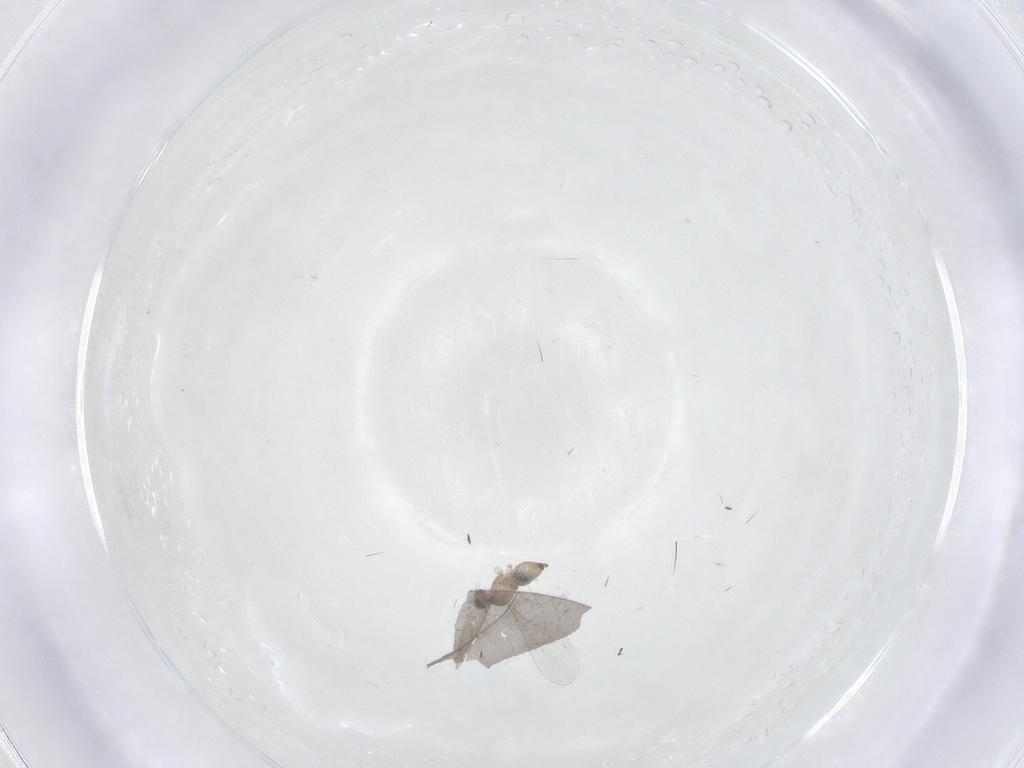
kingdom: Animalia
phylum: Arthropoda
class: Insecta
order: Diptera
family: Mycetophilidae
